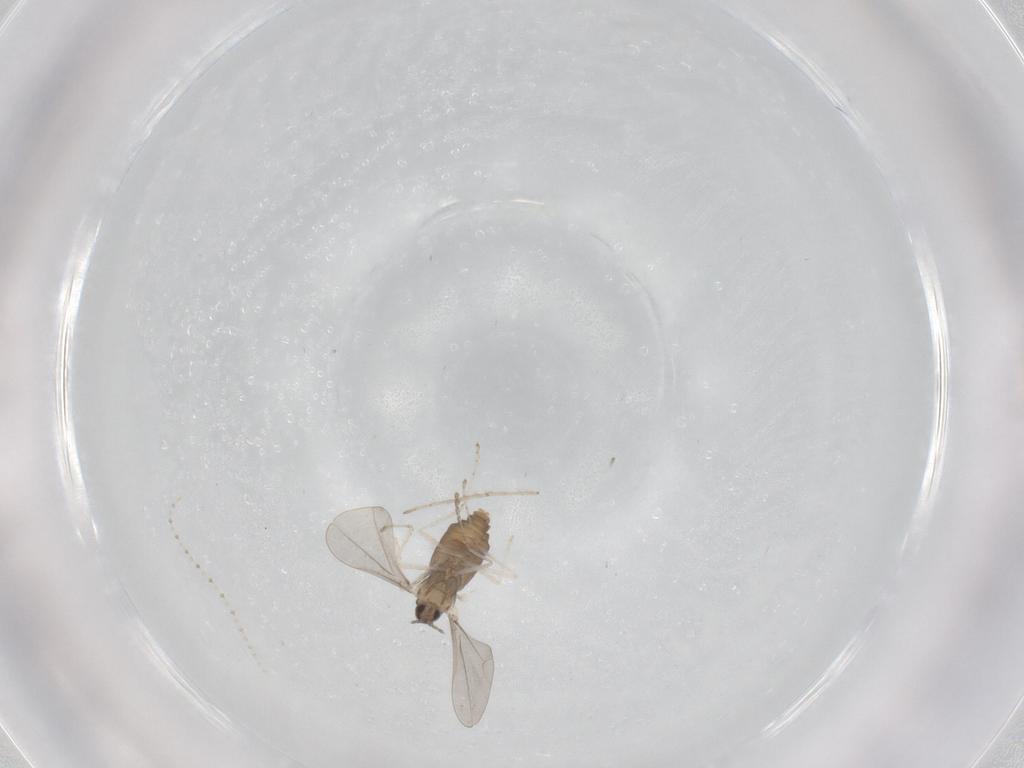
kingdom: Animalia
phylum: Arthropoda
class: Insecta
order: Diptera
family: Chironomidae
